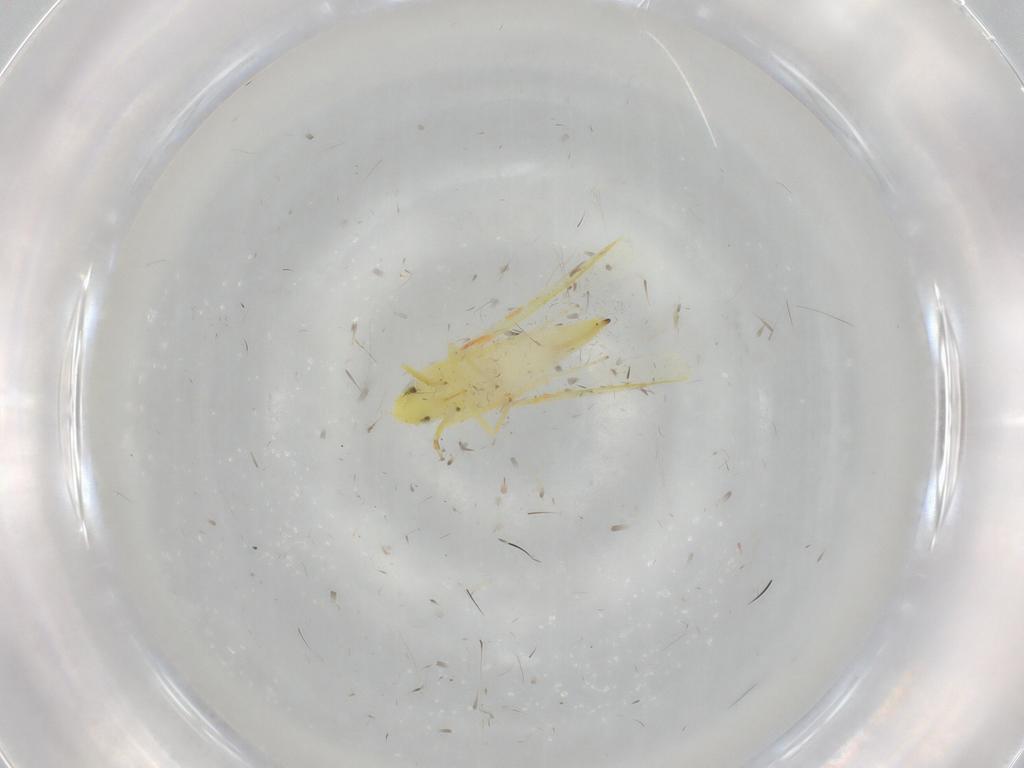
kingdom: Animalia
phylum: Arthropoda
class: Insecta
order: Hemiptera
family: Cicadellidae
